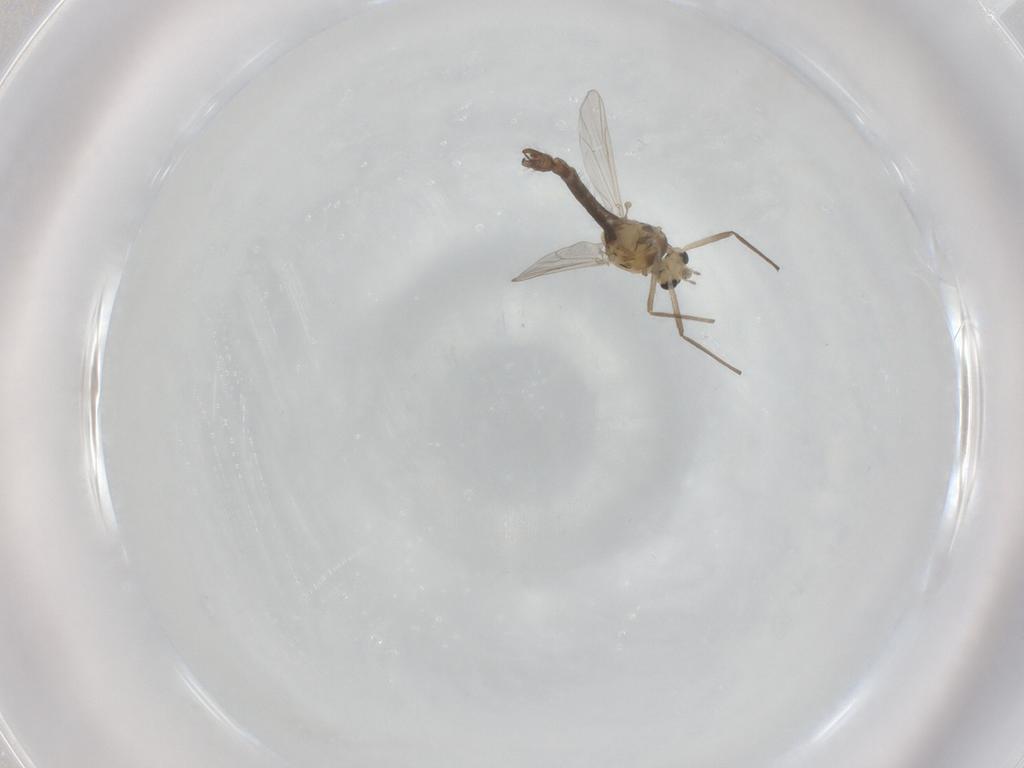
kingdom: Animalia
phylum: Arthropoda
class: Insecta
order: Diptera
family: Chironomidae
